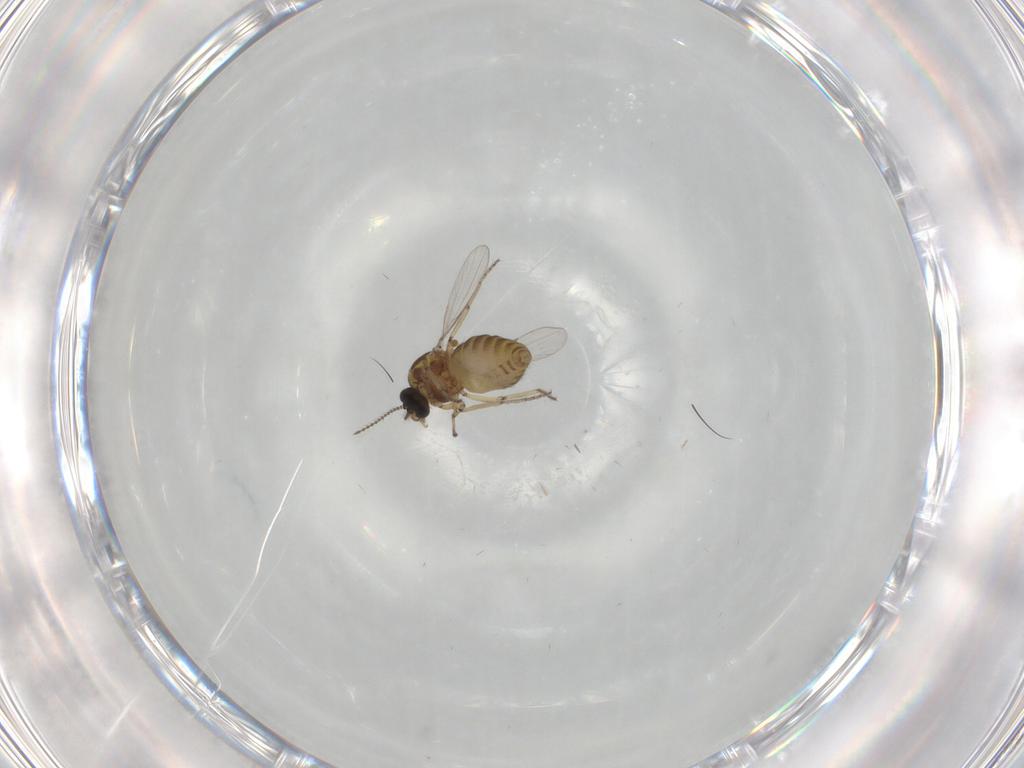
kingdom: Animalia
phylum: Arthropoda
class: Insecta
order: Diptera
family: Ceratopogonidae
